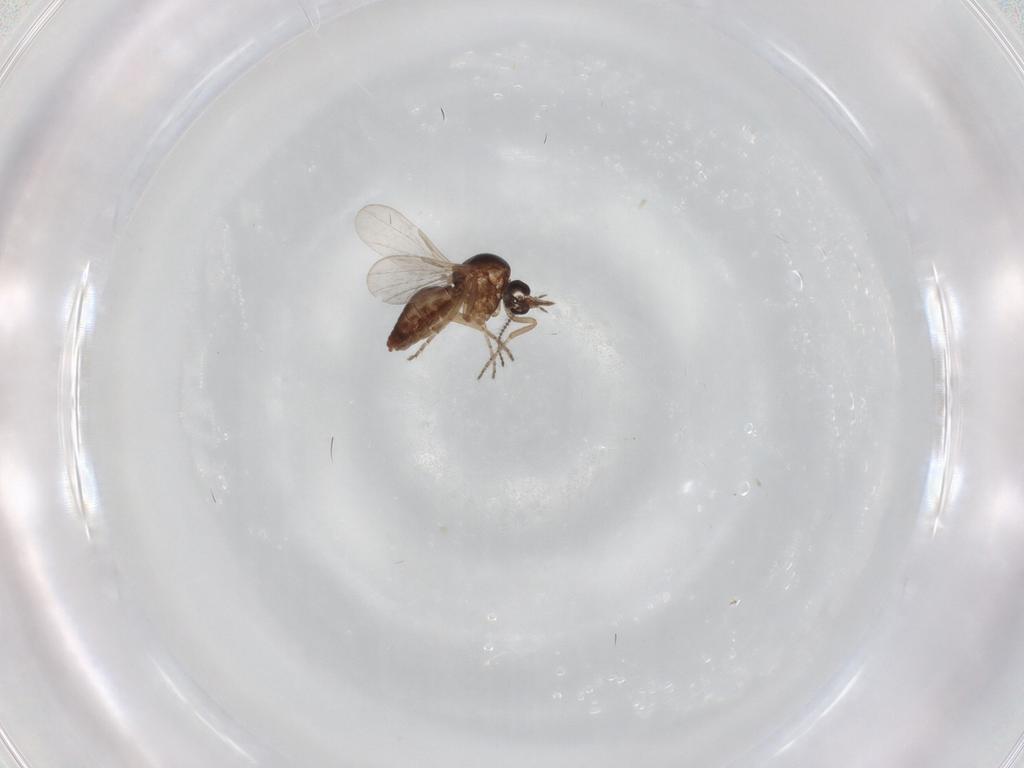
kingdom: Animalia
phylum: Arthropoda
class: Insecta
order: Diptera
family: Ceratopogonidae
